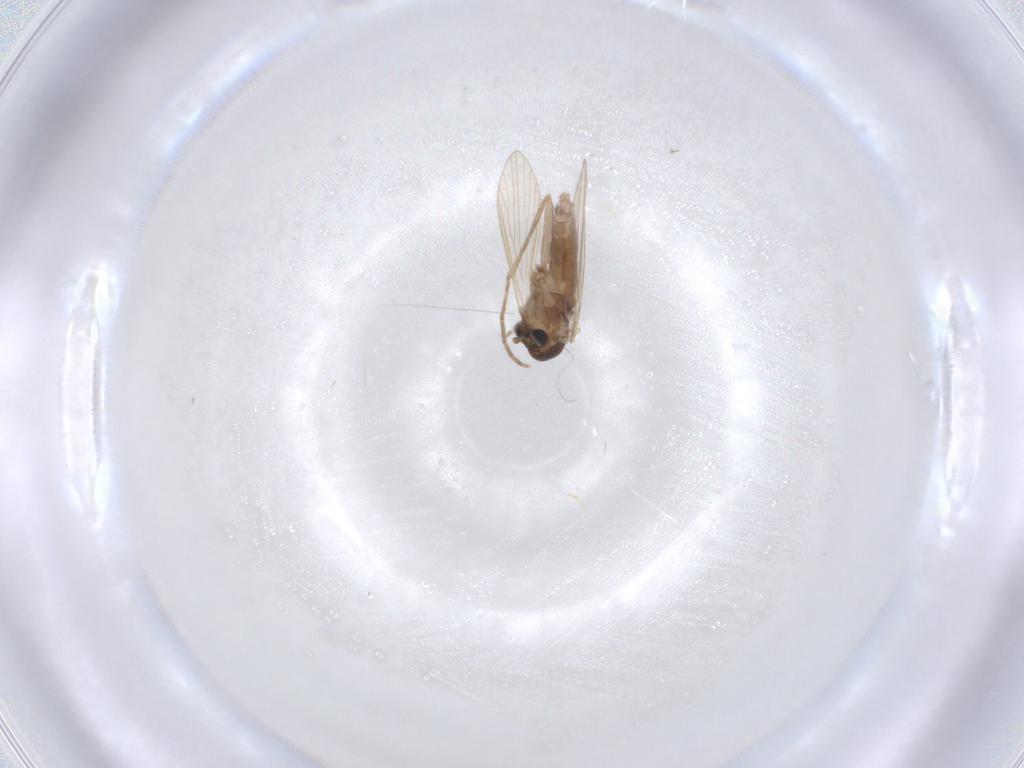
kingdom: Animalia
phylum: Arthropoda
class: Insecta
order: Diptera
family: Psychodidae
